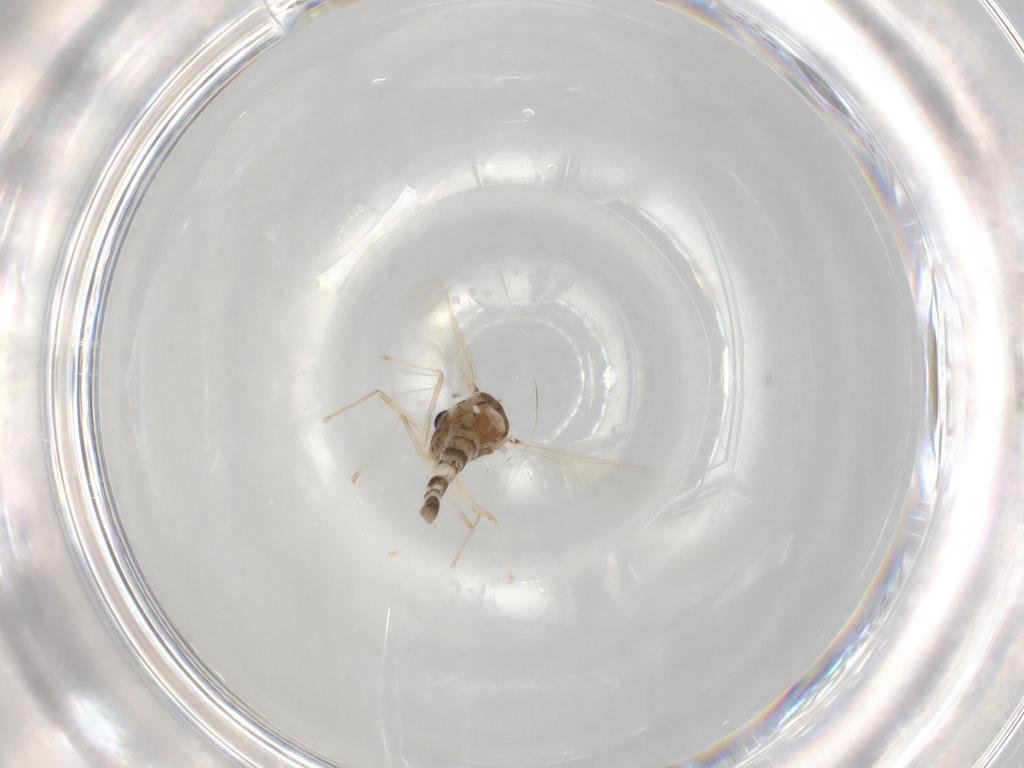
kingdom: Animalia
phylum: Arthropoda
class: Insecta
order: Diptera
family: Chironomidae
